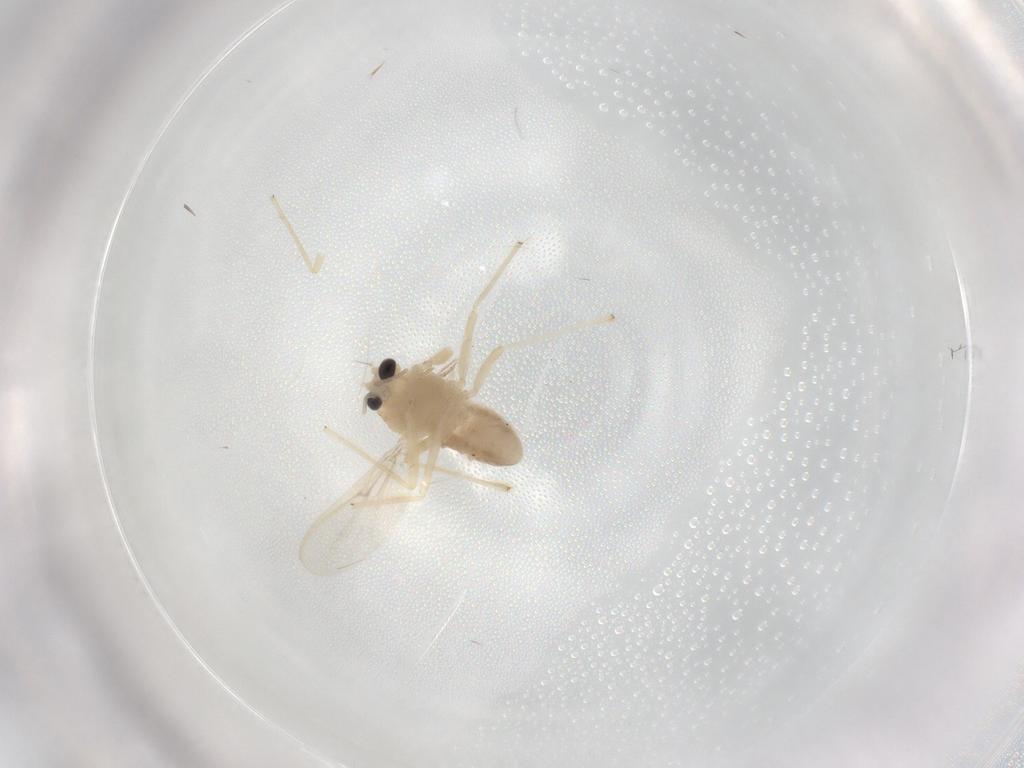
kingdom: Animalia
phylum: Arthropoda
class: Insecta
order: Diptera
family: Chironomidae
